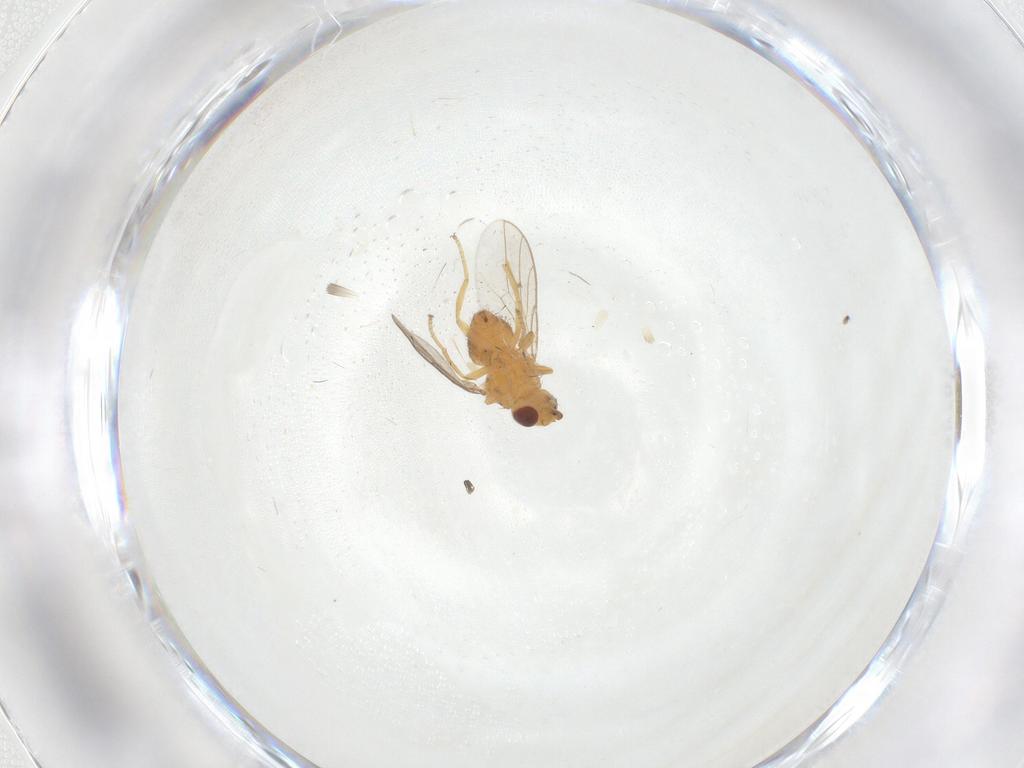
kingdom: Animalia
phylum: Arthropoda
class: Insecta
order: Diptera
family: Chloropidae
